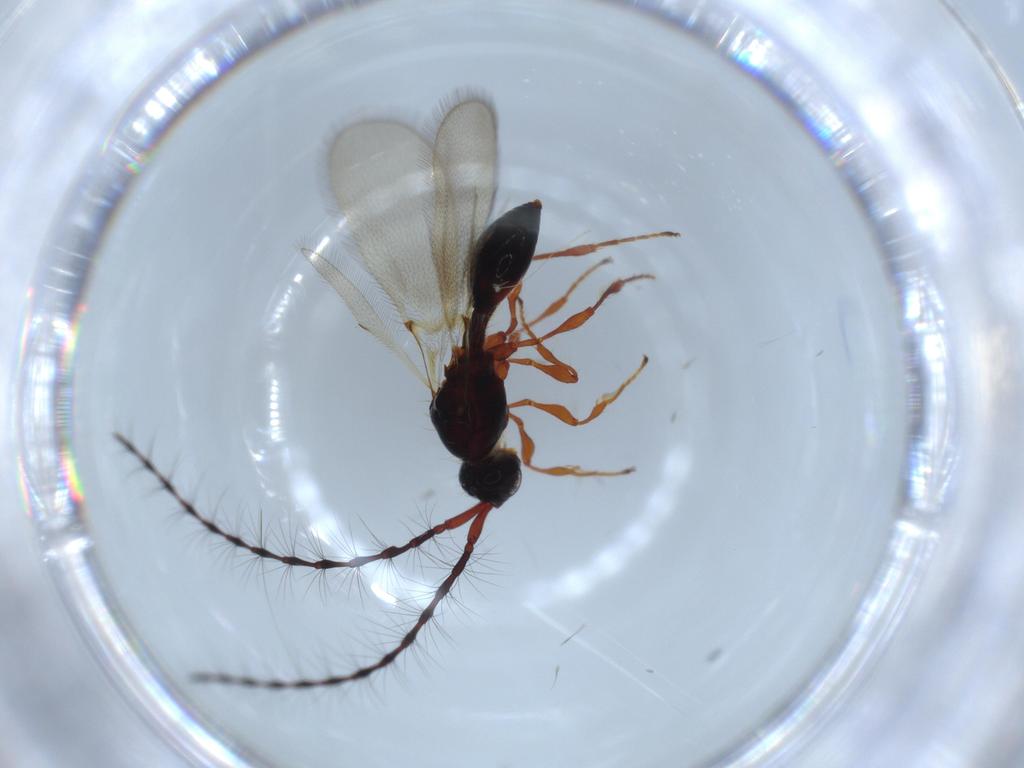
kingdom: Animalia
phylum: Arthropoda
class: Insecta
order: Hymenoptera
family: Diapriidae
